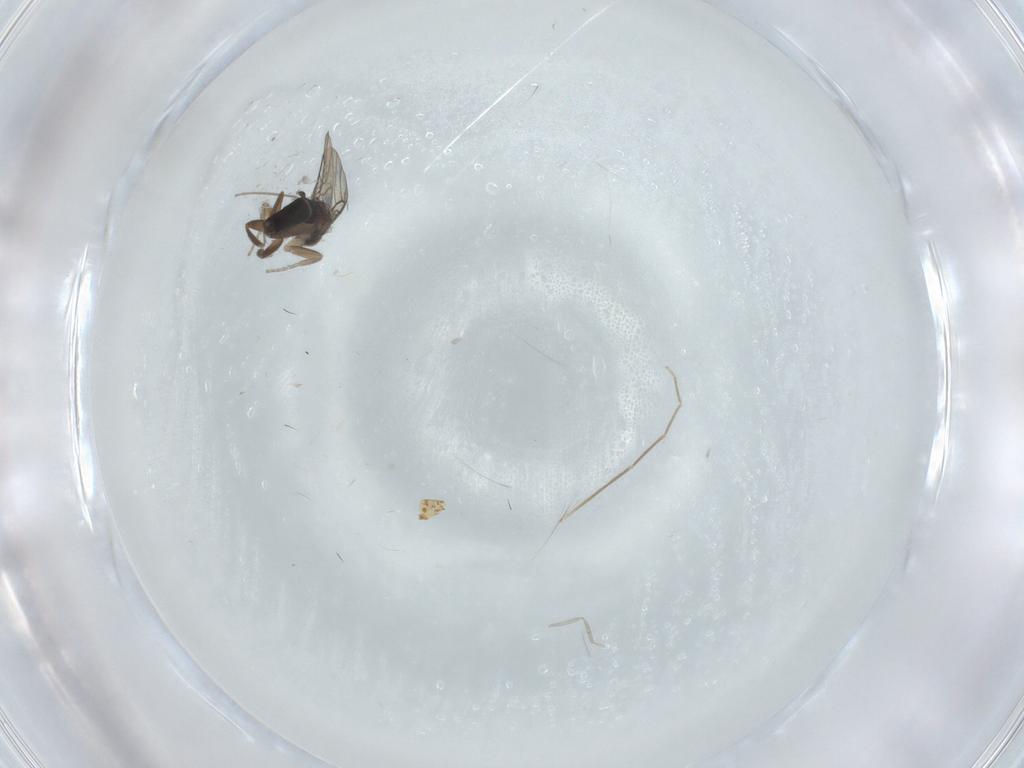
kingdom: Animalia
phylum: Arthropoda
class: Insecta
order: Diptera
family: Cecidomyiidae
